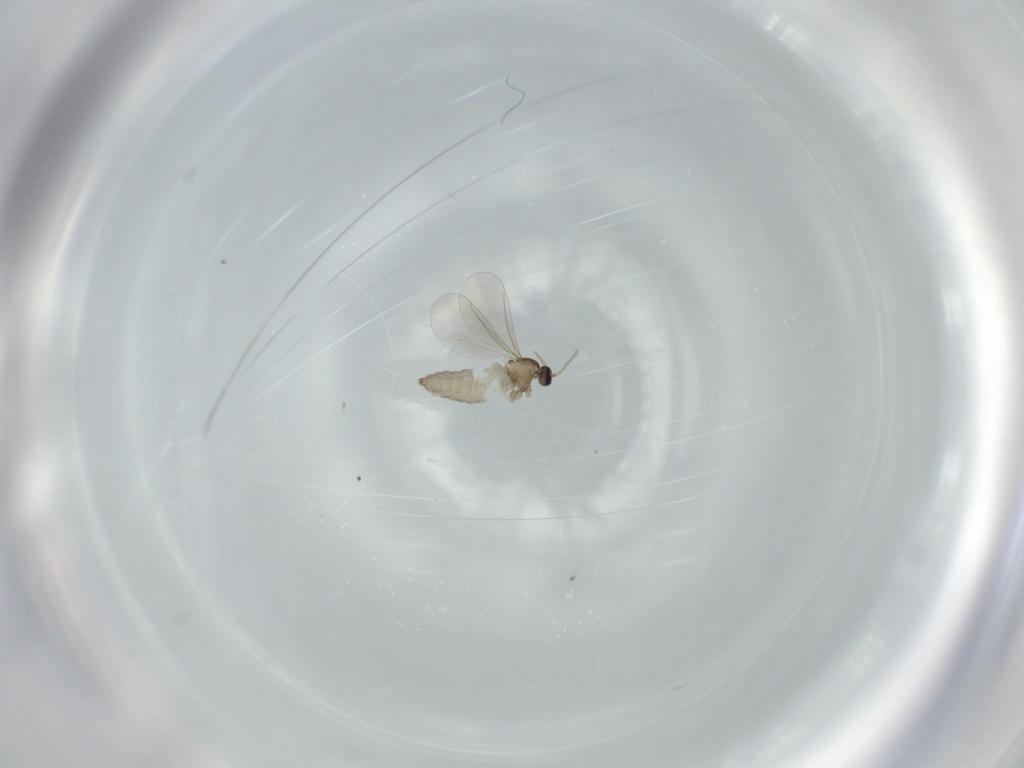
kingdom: Animalia
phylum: Arthropoda
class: Insecta
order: Diptera
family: Cecidomyiidae
